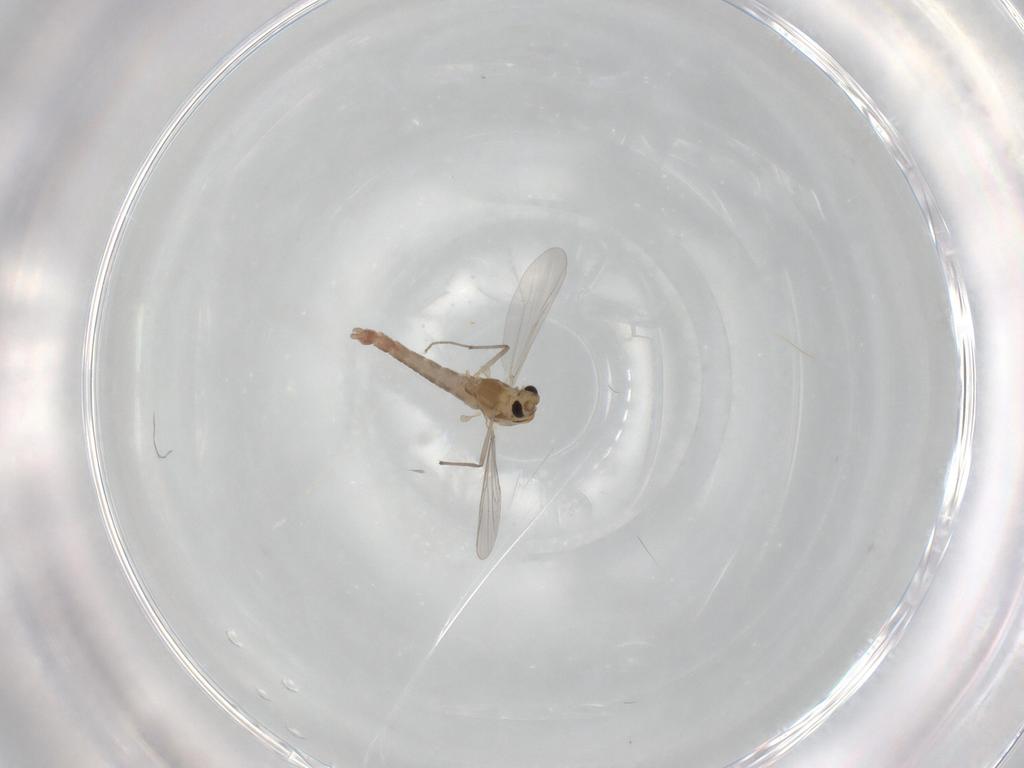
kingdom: Animalia
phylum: Arthropoda
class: Insecta
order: Diptera
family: Chironomidae
